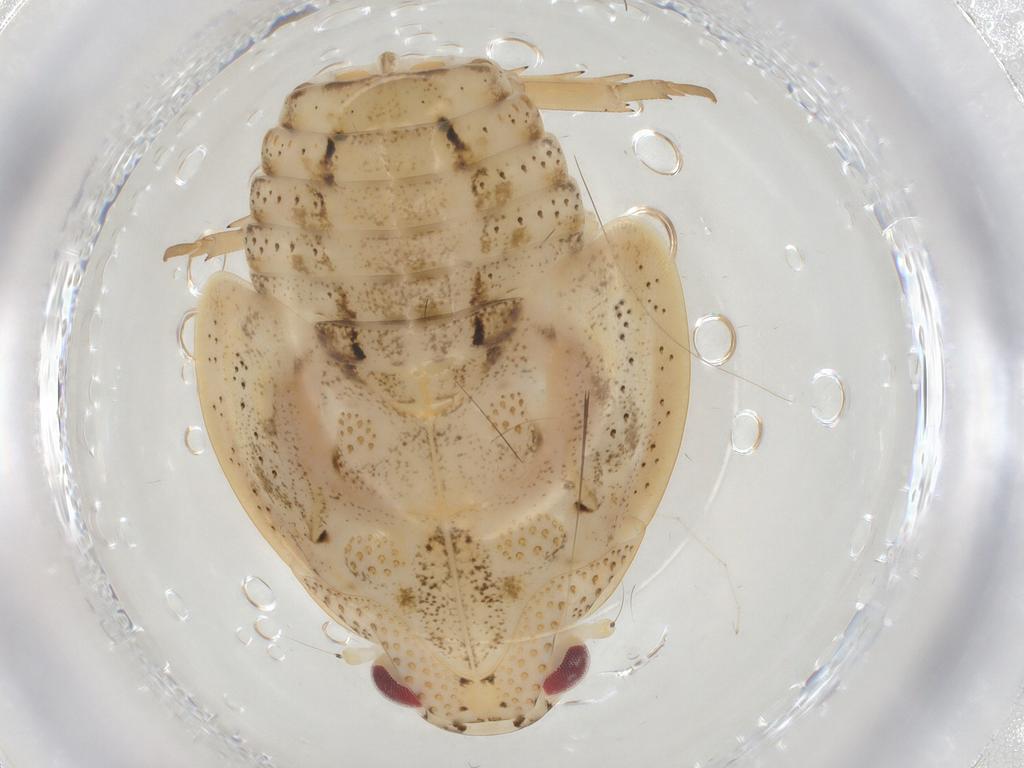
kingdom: Animalia
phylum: Arthropoda
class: Insecta
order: Hemiptera
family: Flatidae
